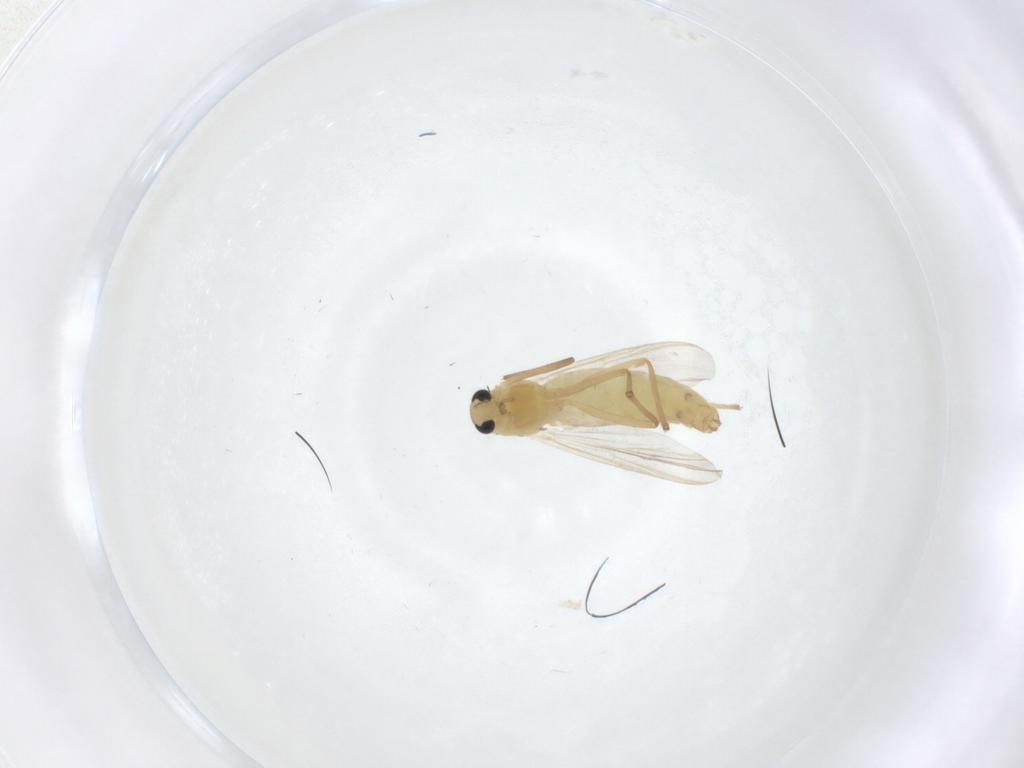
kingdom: Animalia
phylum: Arthropoda
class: Insecta
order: Diptera
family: Chironomidae
